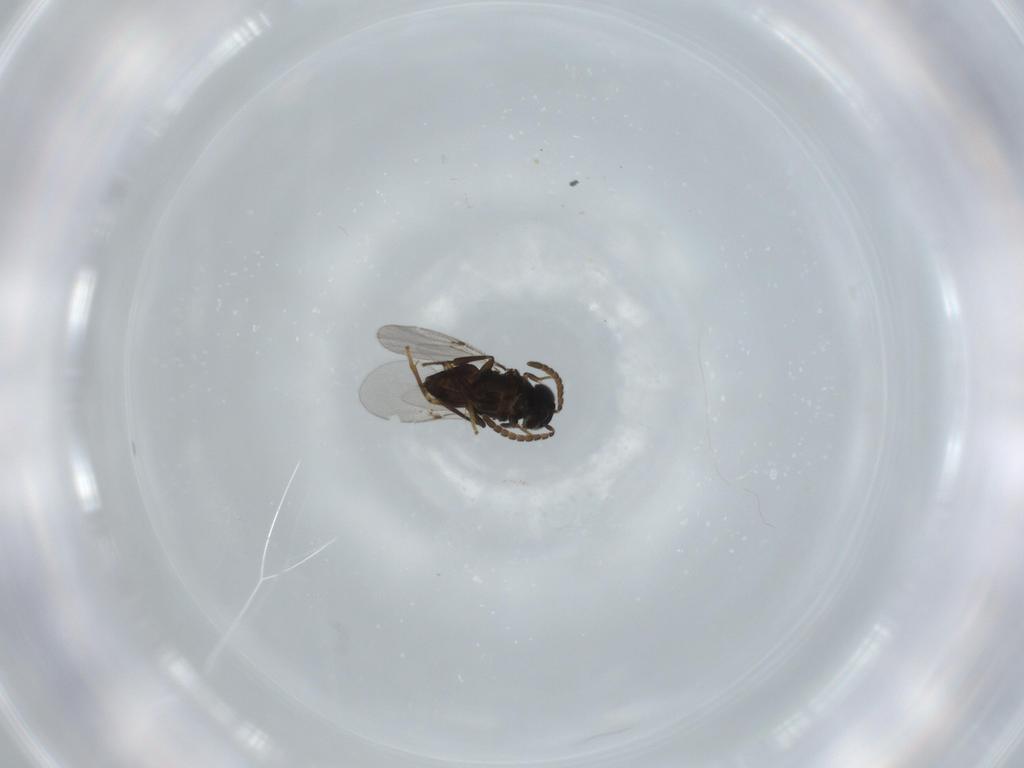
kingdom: Animalia
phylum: Arthropoda
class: Insecta
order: Hymenoptera
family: Encyrtidae
